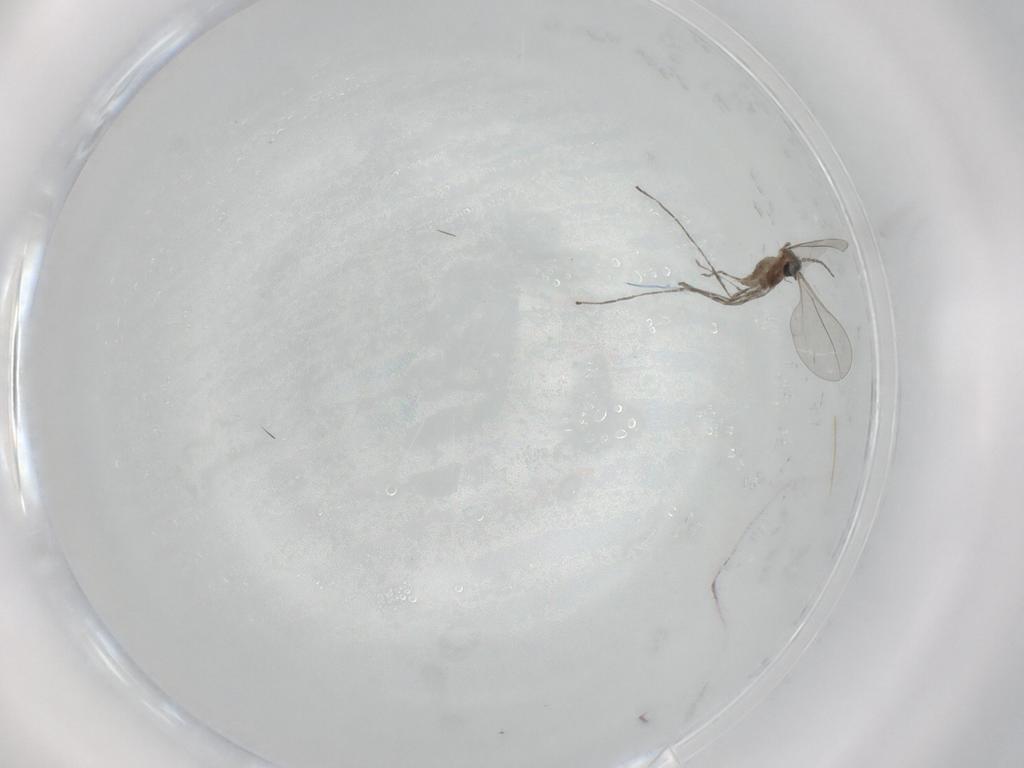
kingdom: Animalia
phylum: Arthropoda
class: Insecta
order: Diptera
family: Cecidomyiidae
